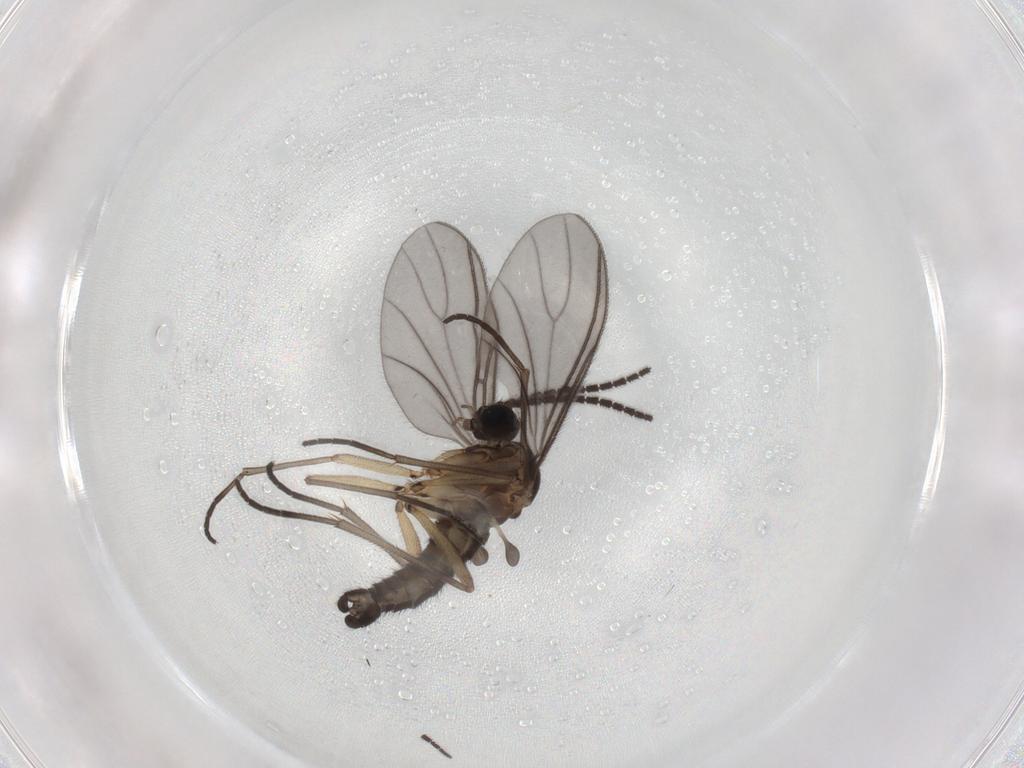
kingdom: Animalia
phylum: Arthropoda
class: Insecta
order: Diptera
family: Sciaridae
